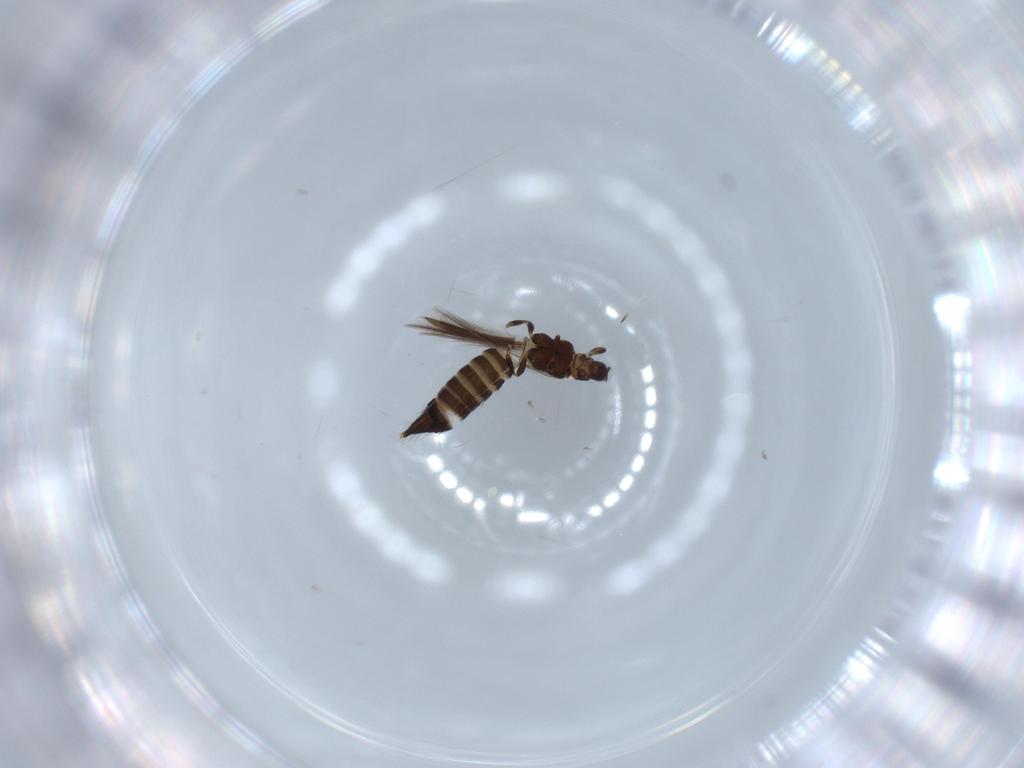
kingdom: Animalia
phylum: Arthropoda
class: Insecta
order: Thysanoptera
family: Thripidae
